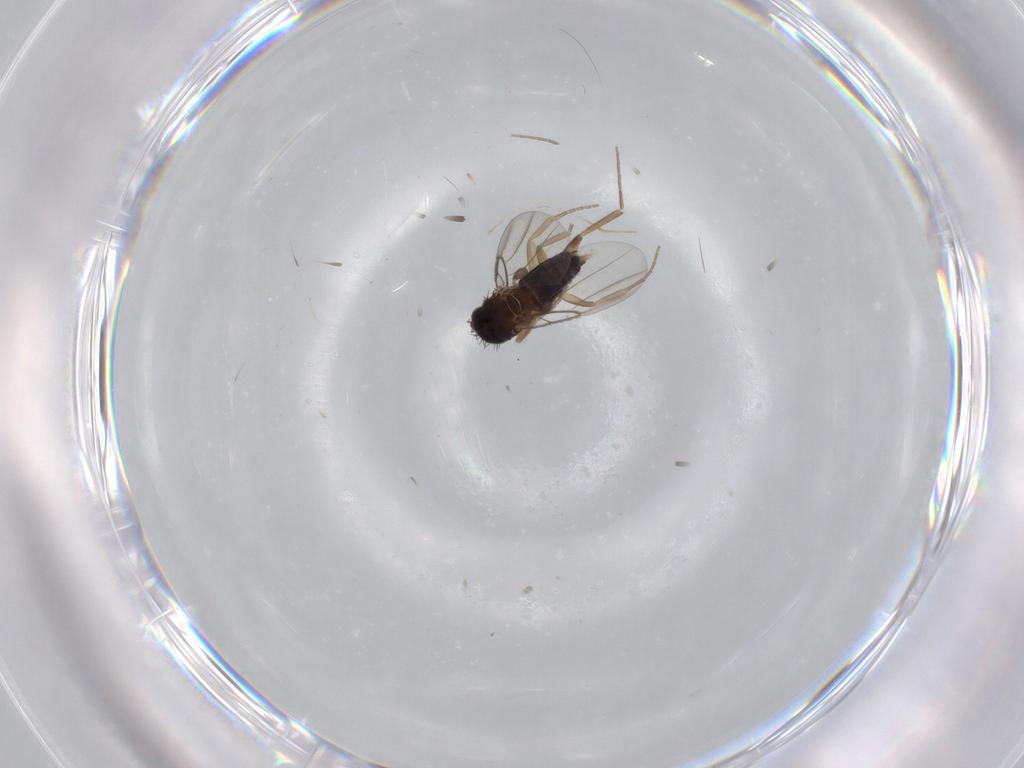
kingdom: Animalia
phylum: Arthropoda
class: Insecta
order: Diptera
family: Phoridae
